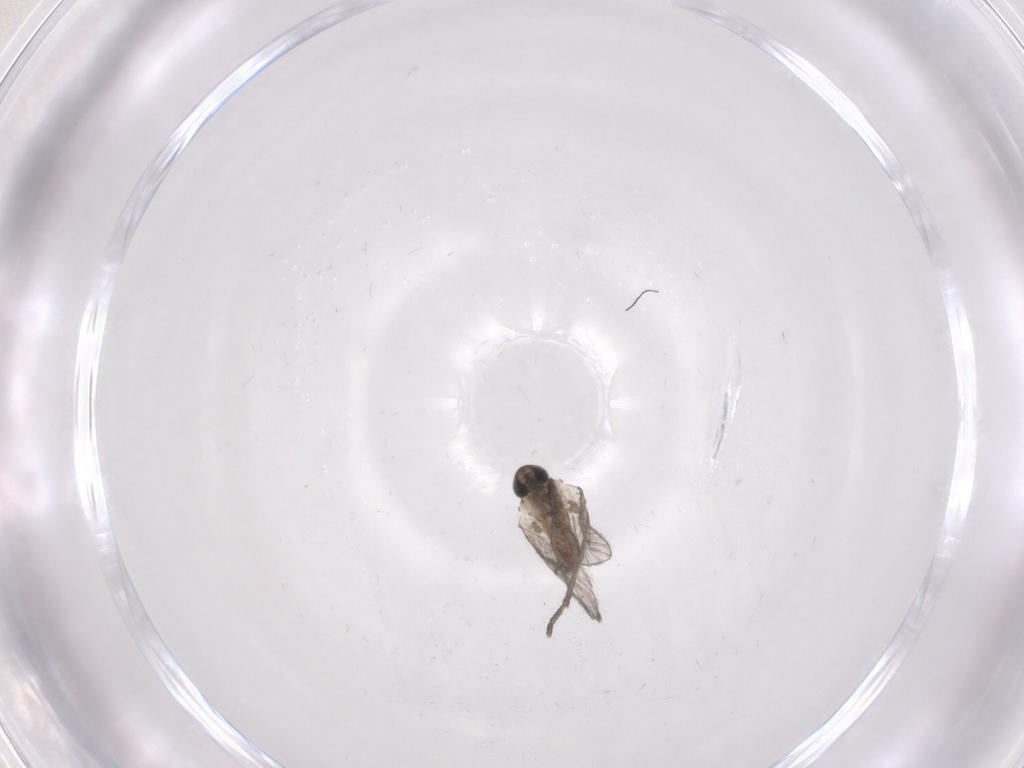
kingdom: Animalia
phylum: Arthropoda
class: Insecta
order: Diptera
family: Psychodidae
